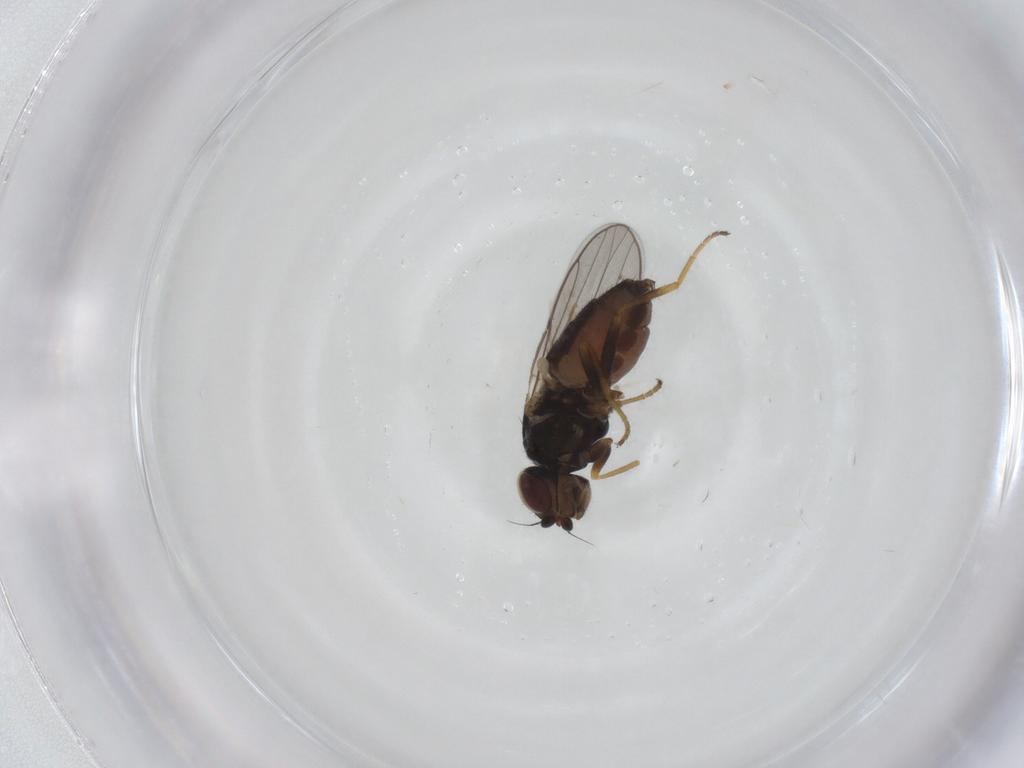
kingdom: Animalia
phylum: Arthropoda
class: Insecta
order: Diptera
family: Chloropidae
